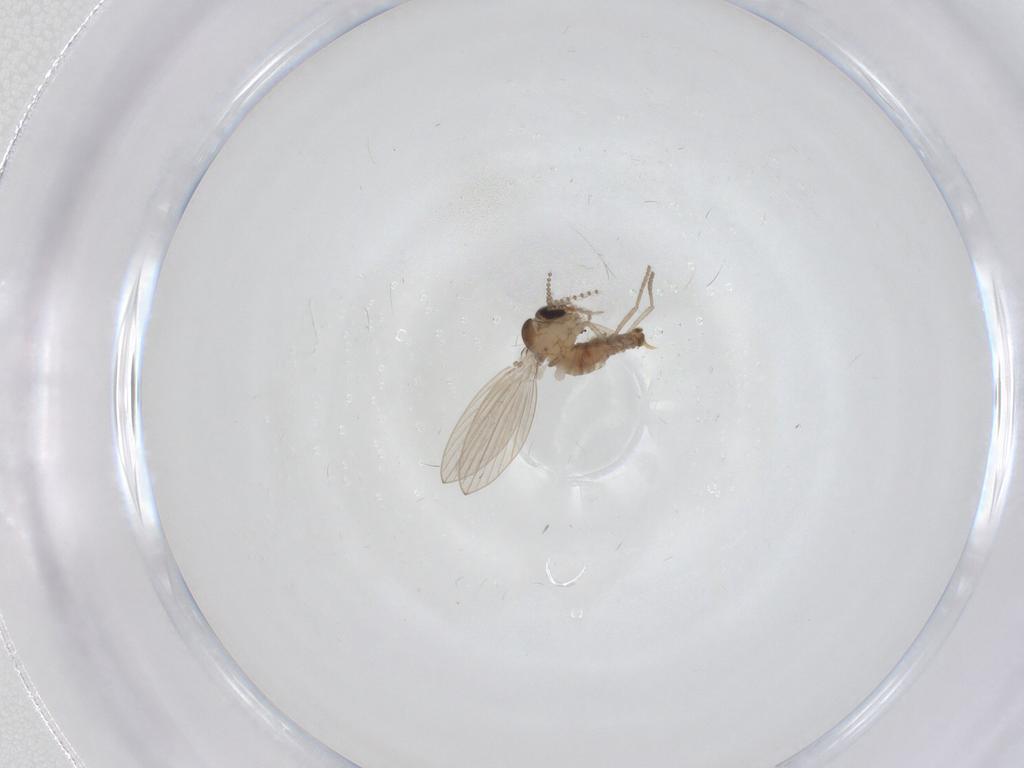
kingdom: Animalia
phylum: Arthropoda
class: Insecta
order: Diptera
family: Psychodidae
